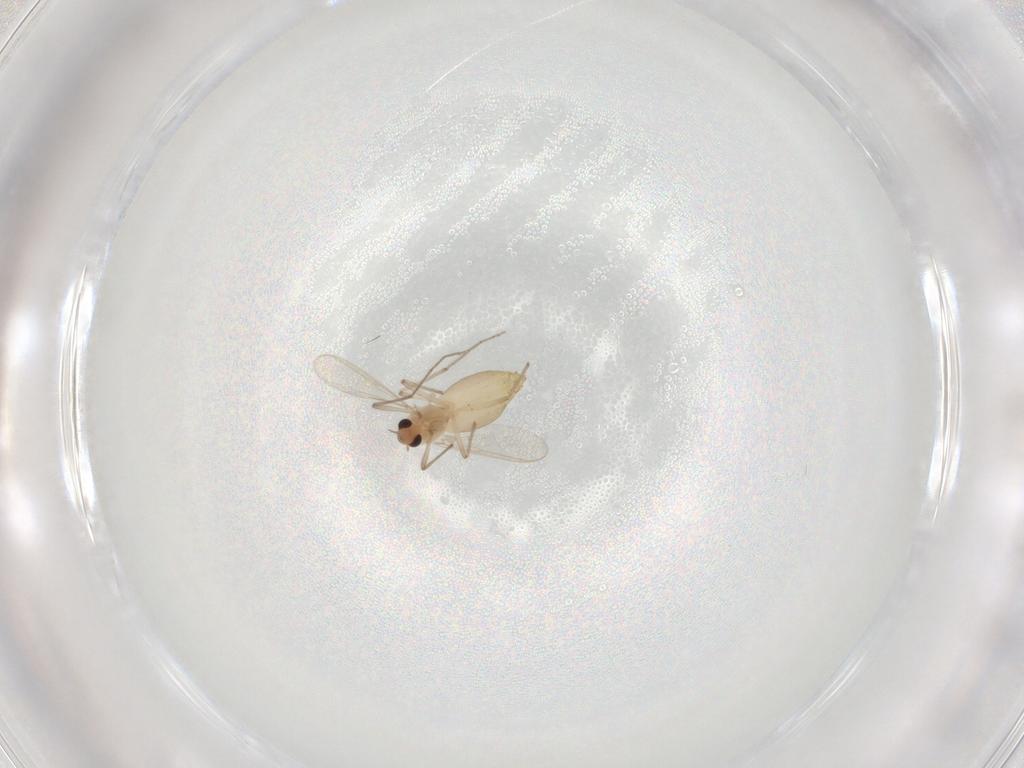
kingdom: Animalia
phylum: Arthropoda
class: Insecta
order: Diptera
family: Chironomidae
